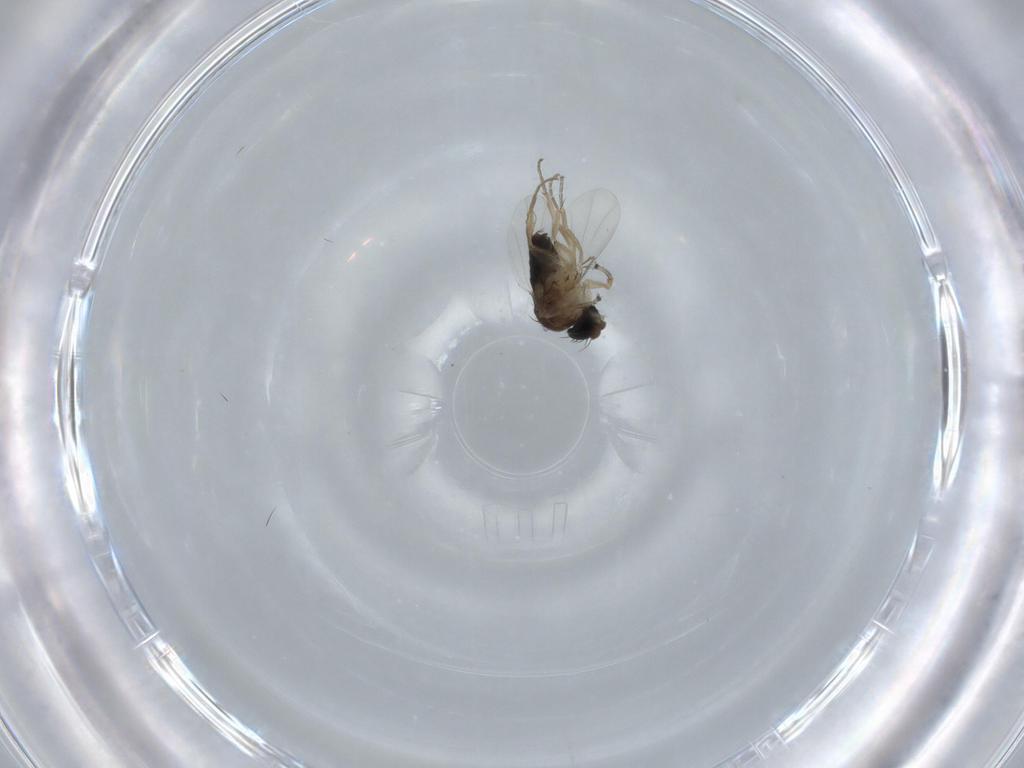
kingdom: Animalia
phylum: Arthropoda
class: Insecta
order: Diptera
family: Phoridae
